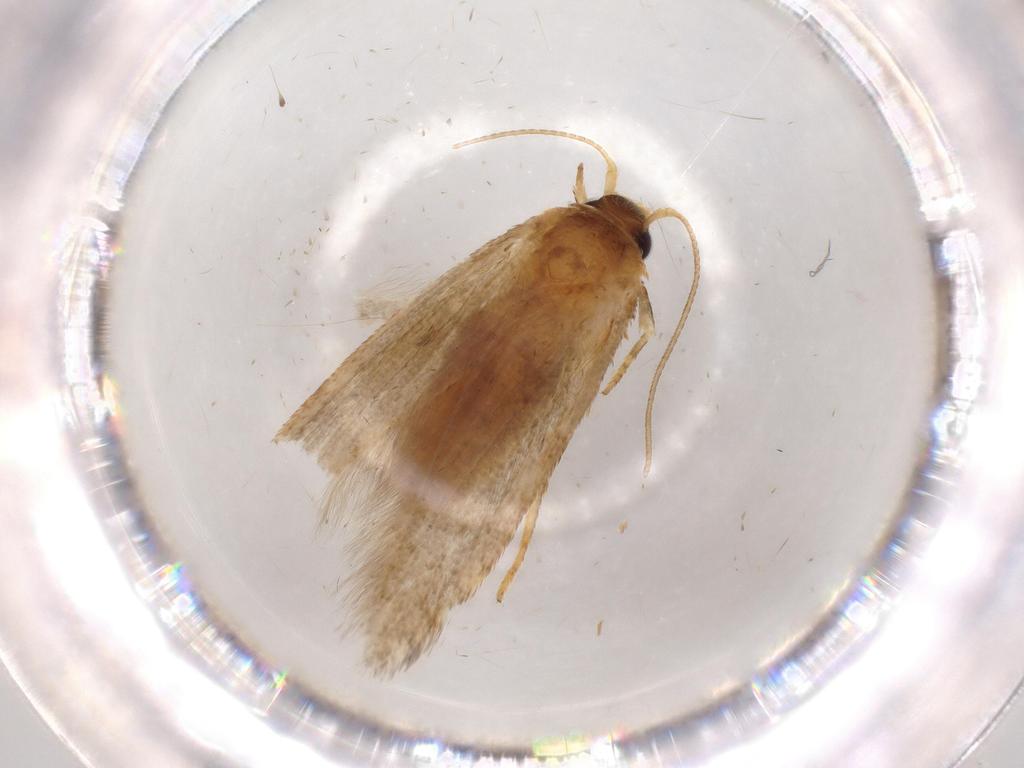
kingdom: Animalia
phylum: Arthropoda
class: Insecta
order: Lepidoptera
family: Blastobasidae
